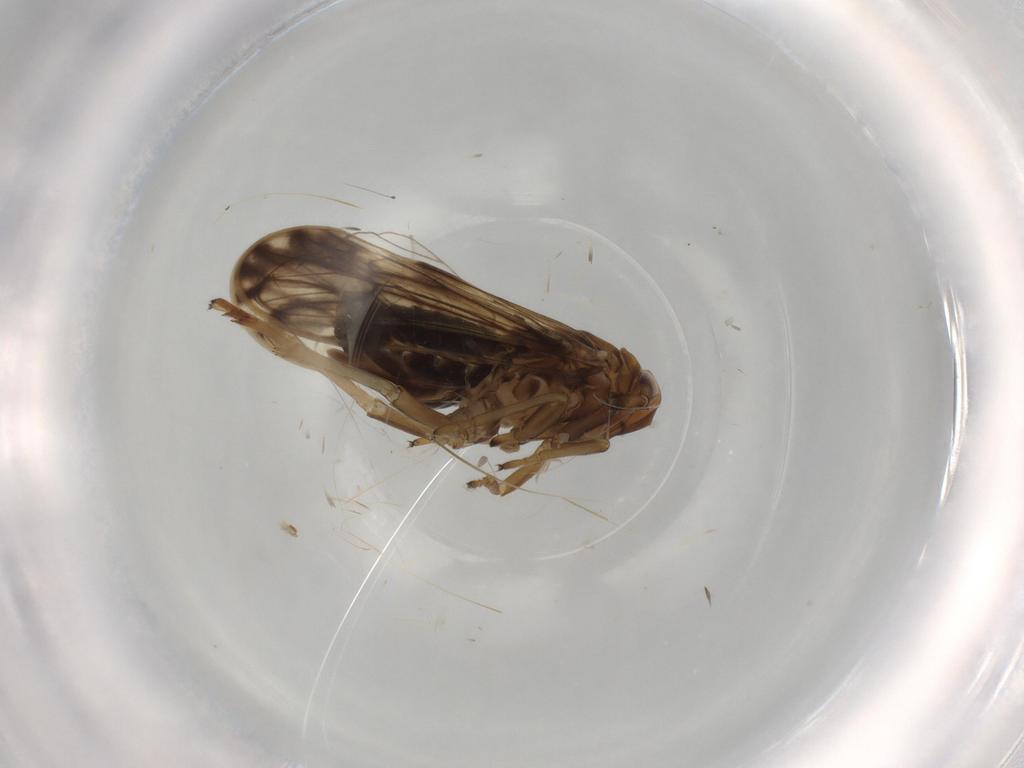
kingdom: Animalia
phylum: Arthropoda
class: Insecta
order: Hemiptera
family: Delphacidae
